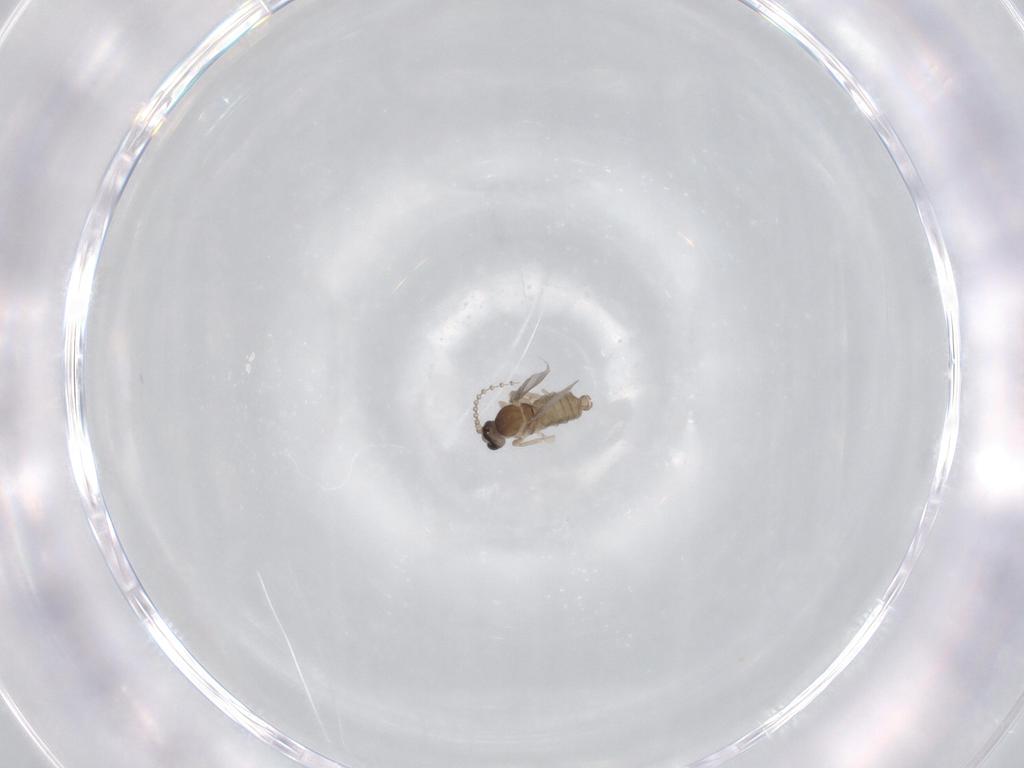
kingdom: Animalia
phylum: Arthropoda
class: Insecta
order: Diptera
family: Cecidomyiidae
